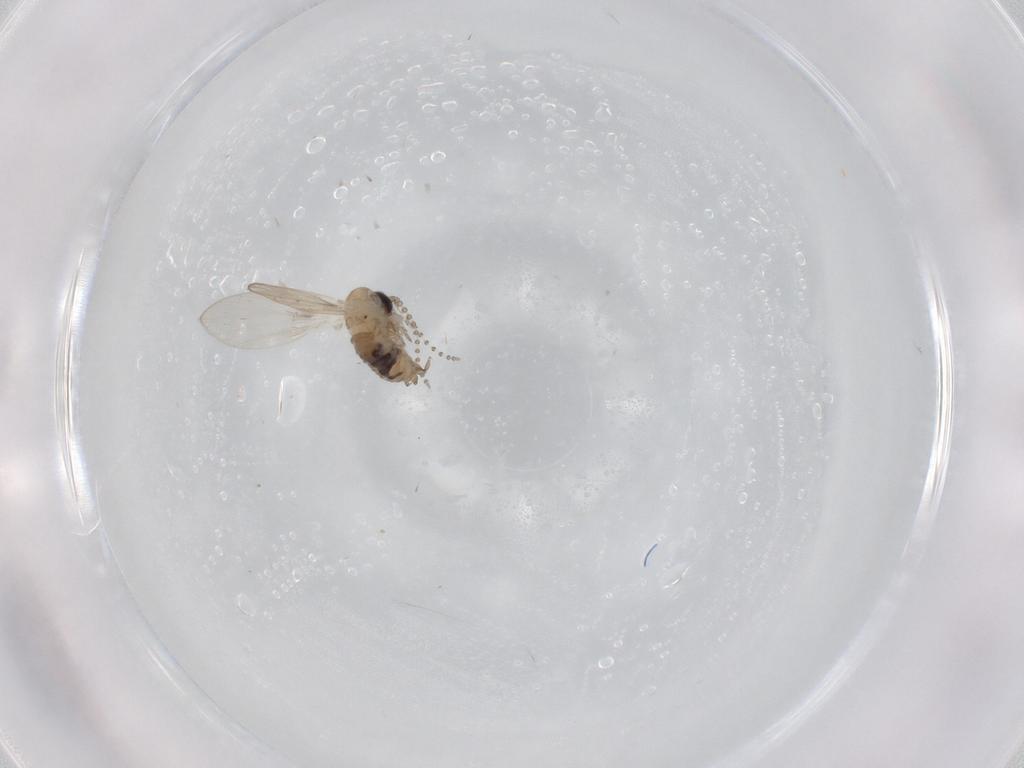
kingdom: Animalia
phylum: Arthropoda
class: Insecta
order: Diptera
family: Psychodidae
